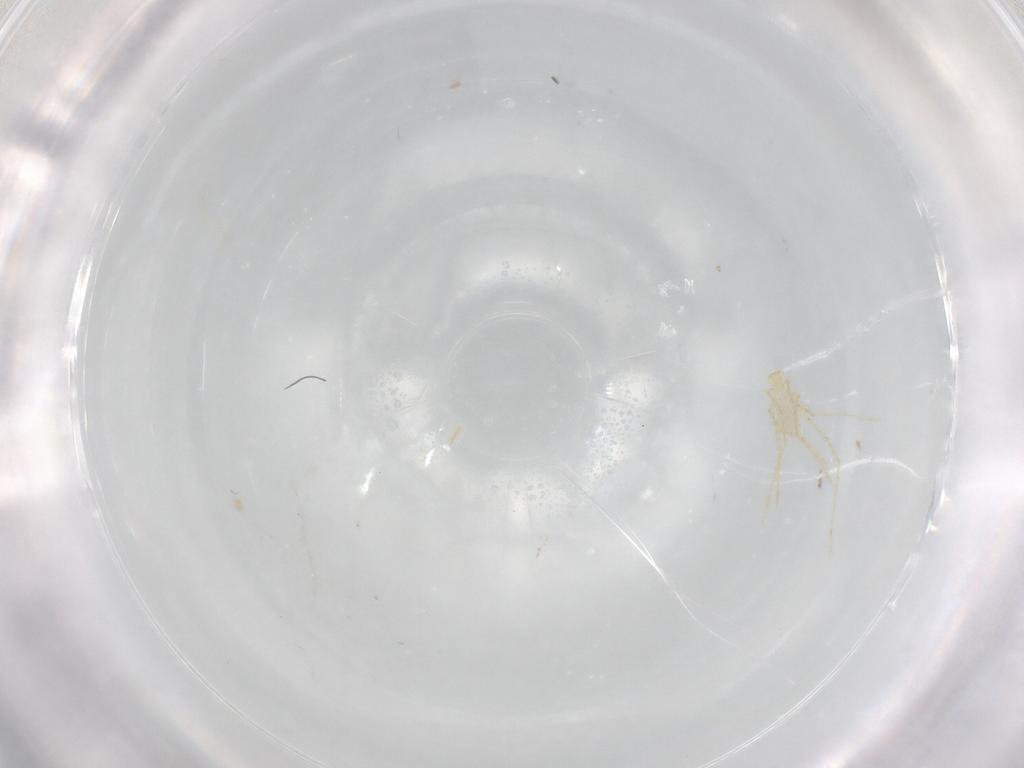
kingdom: Animalia
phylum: Arthropoda
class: Arachnida
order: Trombidiformes
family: Erythraeidae
